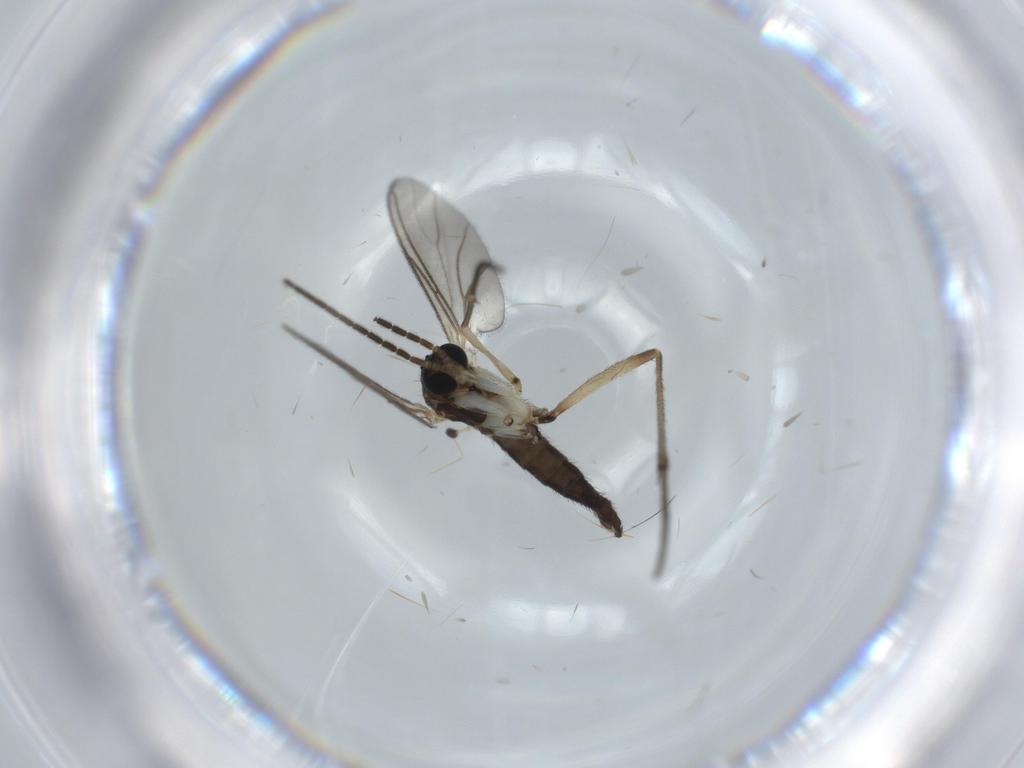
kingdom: Animalia
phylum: Arthropoda
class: Insecta
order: Diptera
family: Sciaridae
